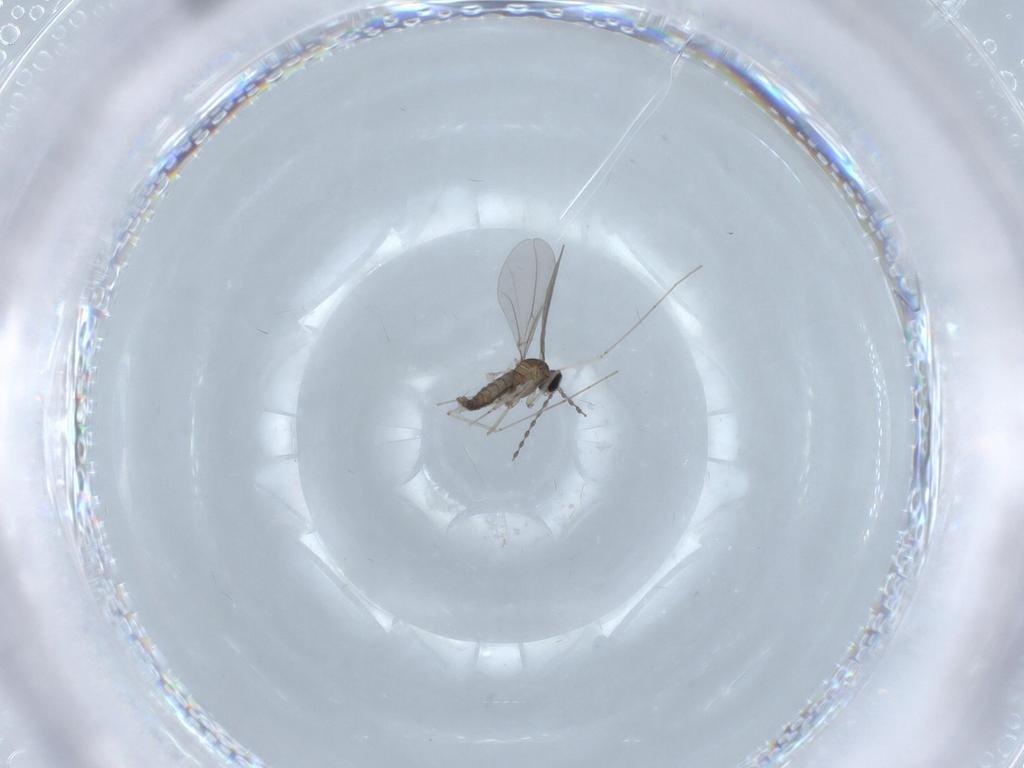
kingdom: Animalia
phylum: Arthropoda
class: Insecta
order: Diptera
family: Cecidomyiidae
